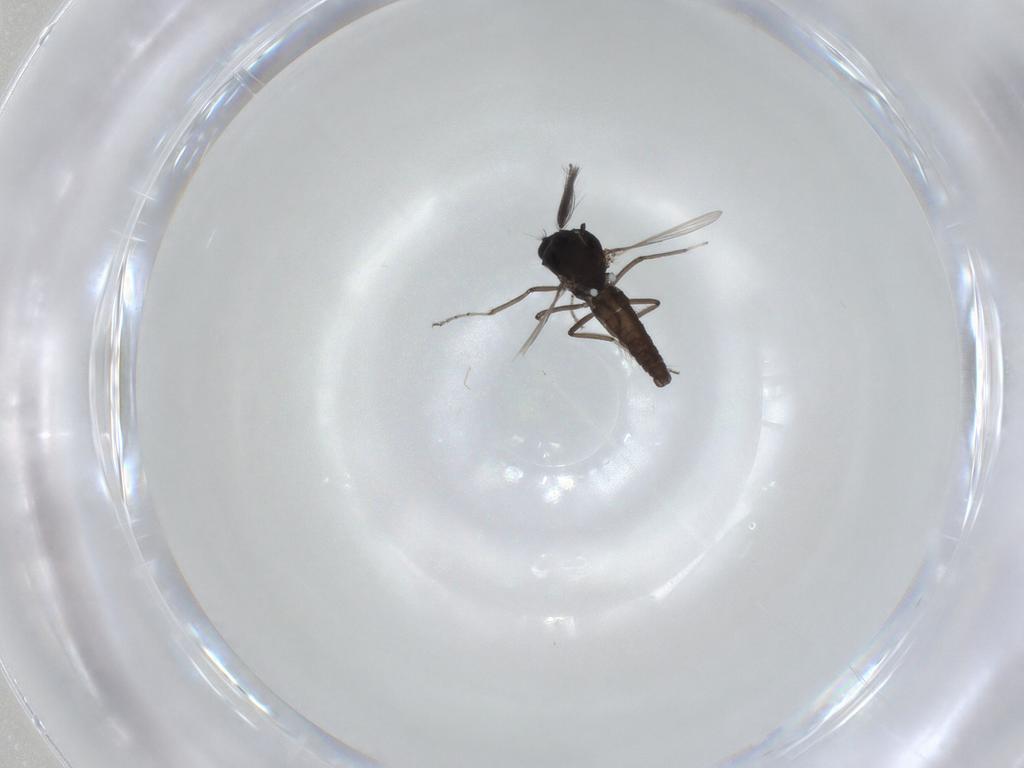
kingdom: Animalia
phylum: Arthropoda
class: Insecta
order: Diptera
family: Ceratopogonidae
